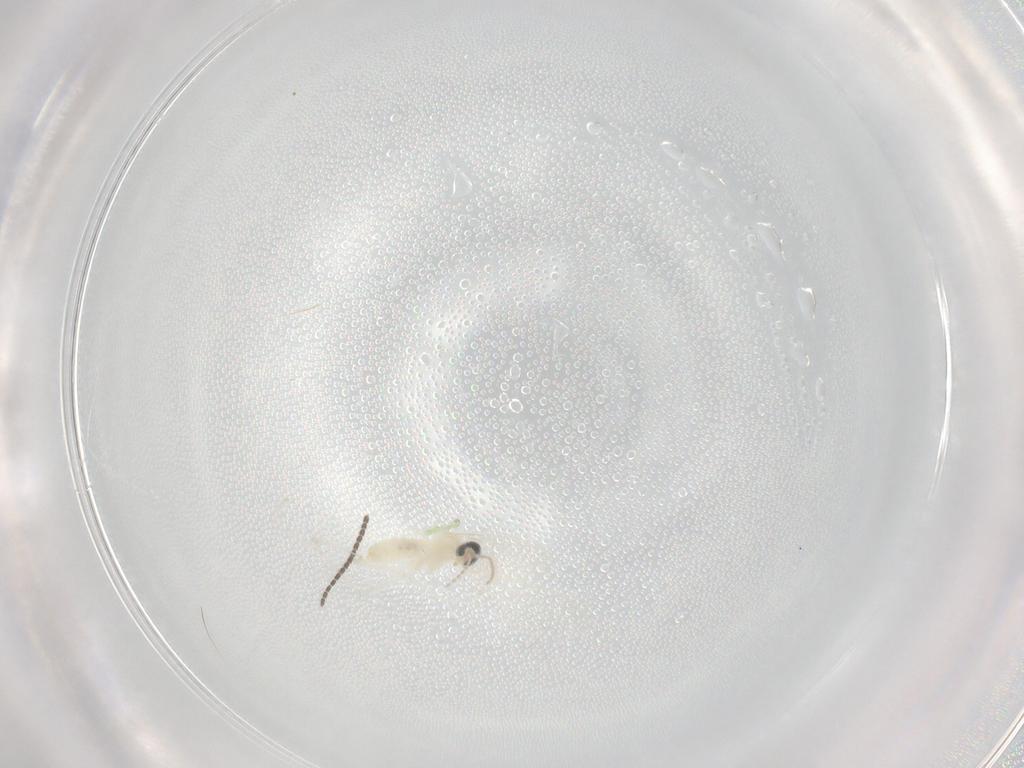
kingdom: Animalia
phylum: Arthropoda
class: Insecta
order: Diptera
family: Sciaridae
